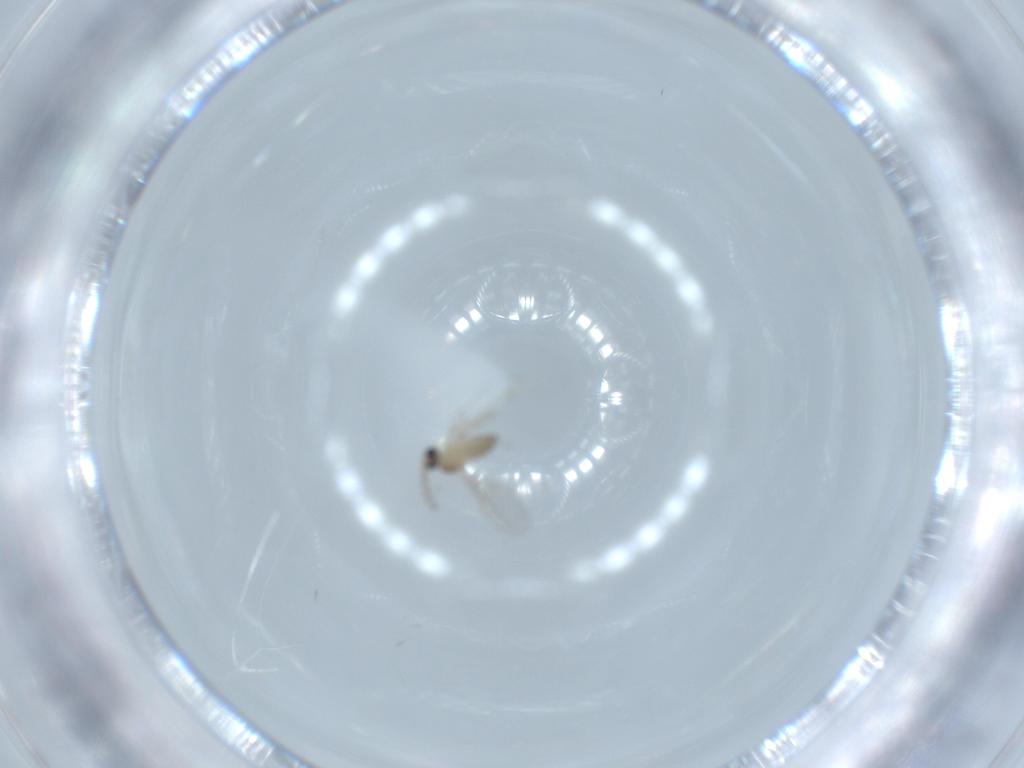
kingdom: Animalia
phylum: Arthropoda
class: Insecta
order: Diptera
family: Cecidomyiidae
